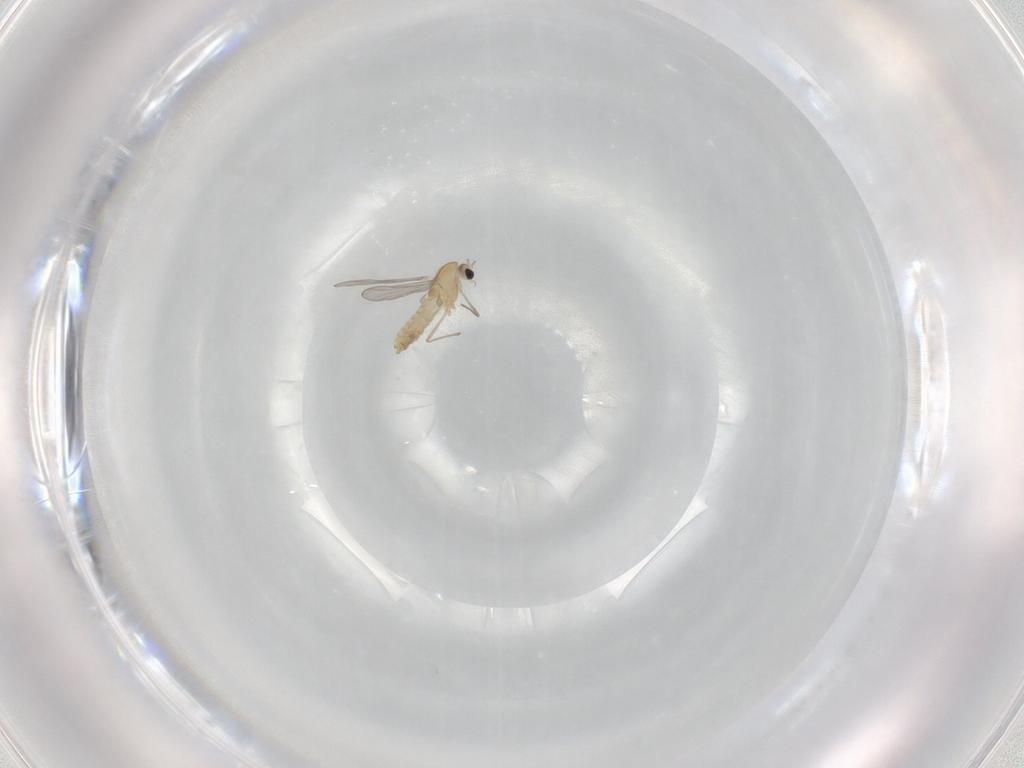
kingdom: Animalia
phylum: Arthropoda
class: Insecta
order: Diptera
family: Chironomidae
